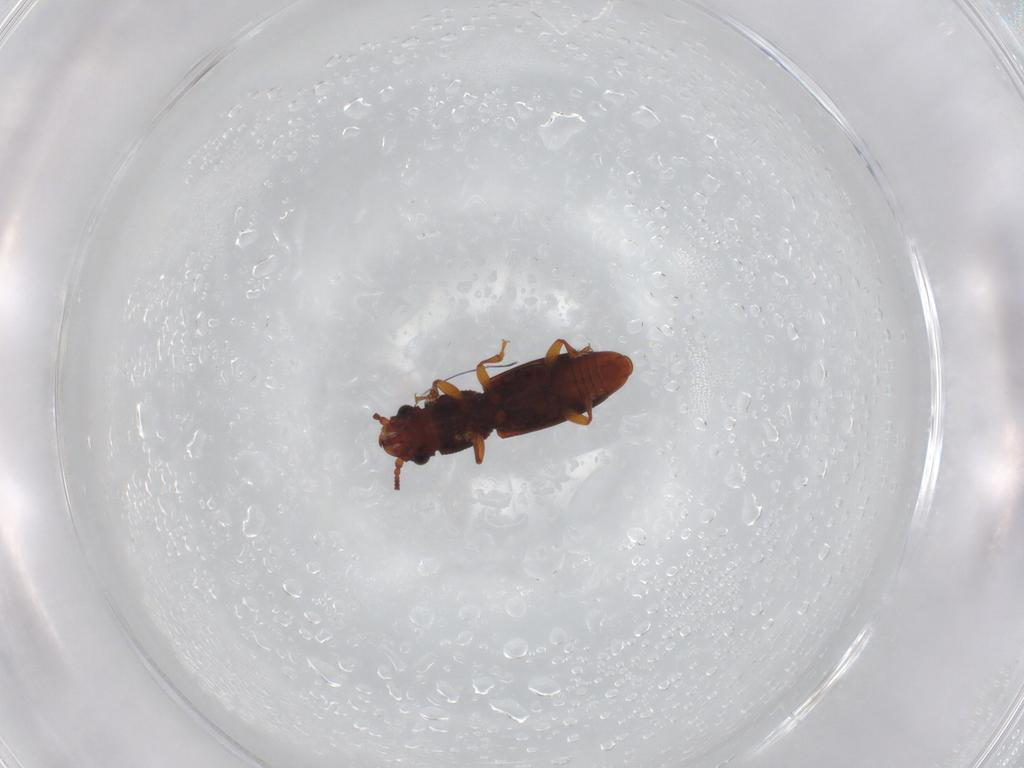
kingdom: Animalia
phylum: Arthropoda
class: Insecta
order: Coleoptera
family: Monotomidae
